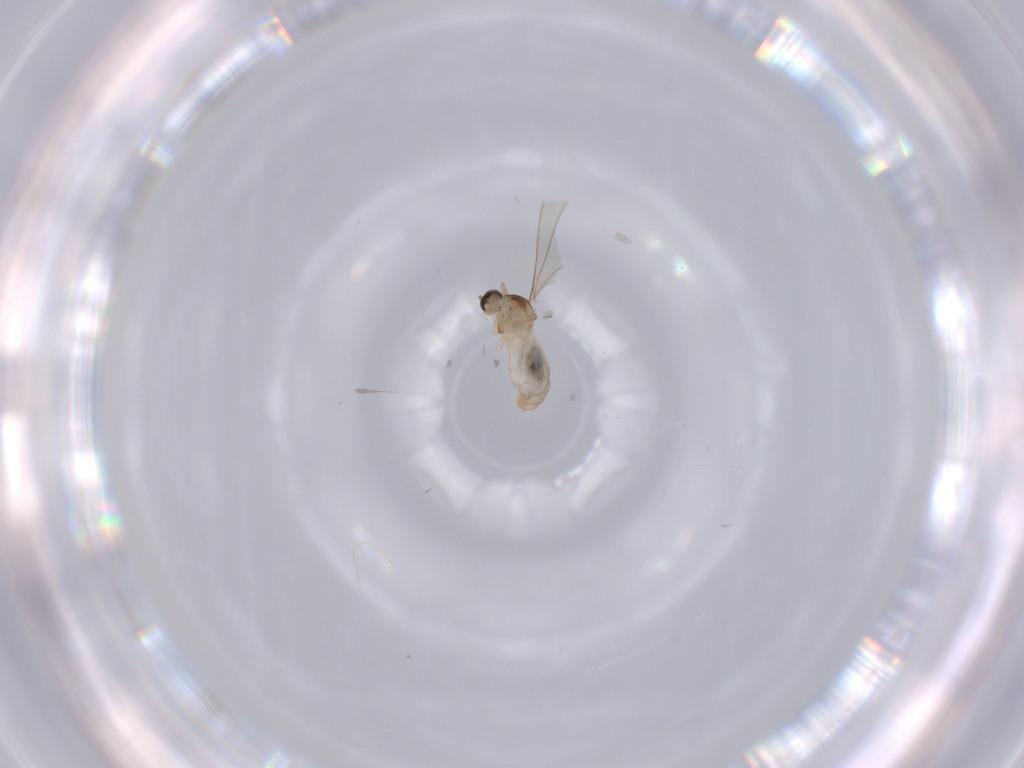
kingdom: Animalia
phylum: Arthropoda
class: Insecta
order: Diptera
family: Cecidomyiidae
